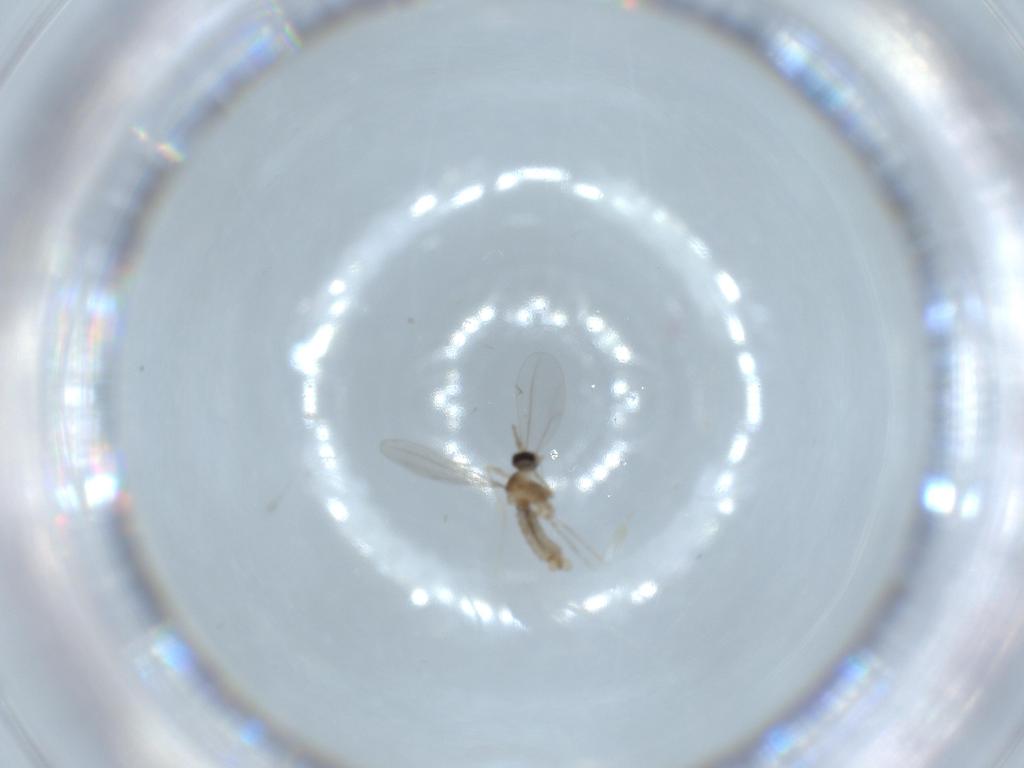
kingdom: Animalia
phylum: Arthropoda
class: Insecta
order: Diptera
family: Cecidomyiidae
